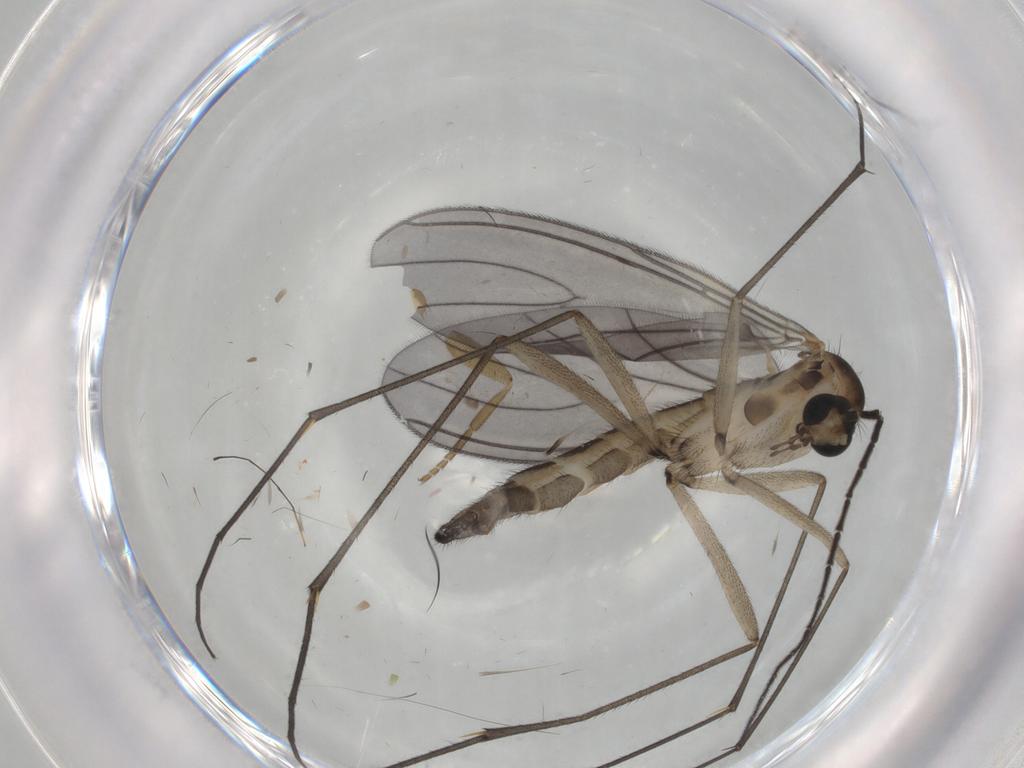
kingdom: Animalia
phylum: Arthropoda
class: Insecta
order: Diptera
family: Sciaridae
